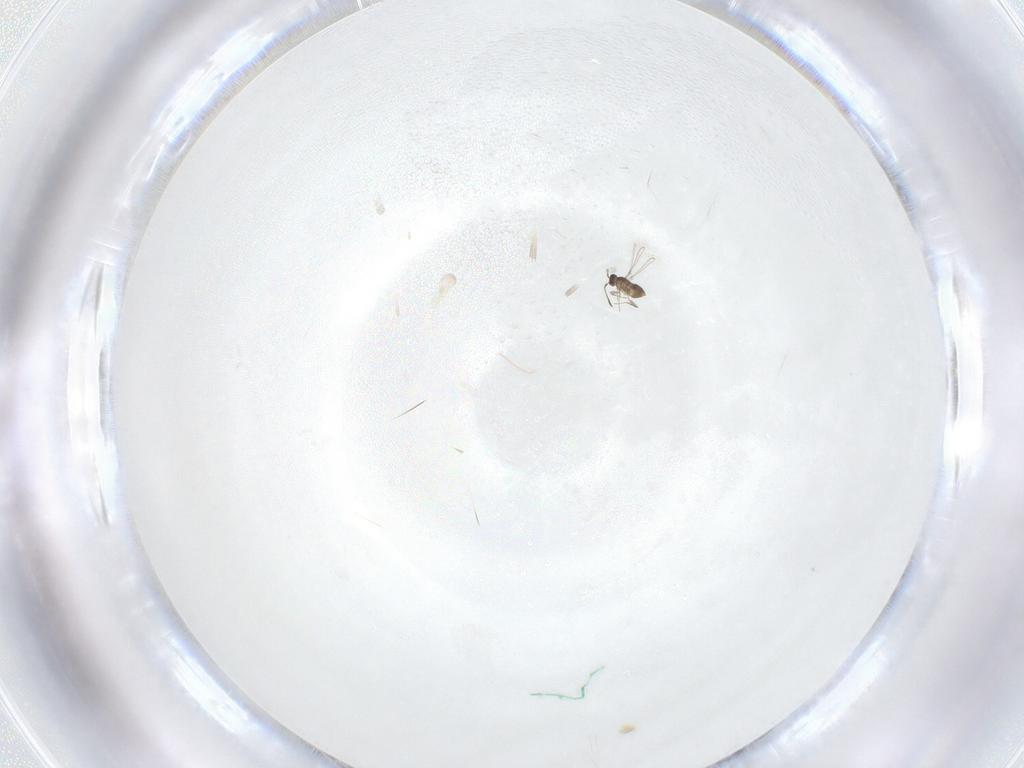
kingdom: Animalia
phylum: Arthropoda
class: Insecta
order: Hymenoptera
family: Mymaridae
